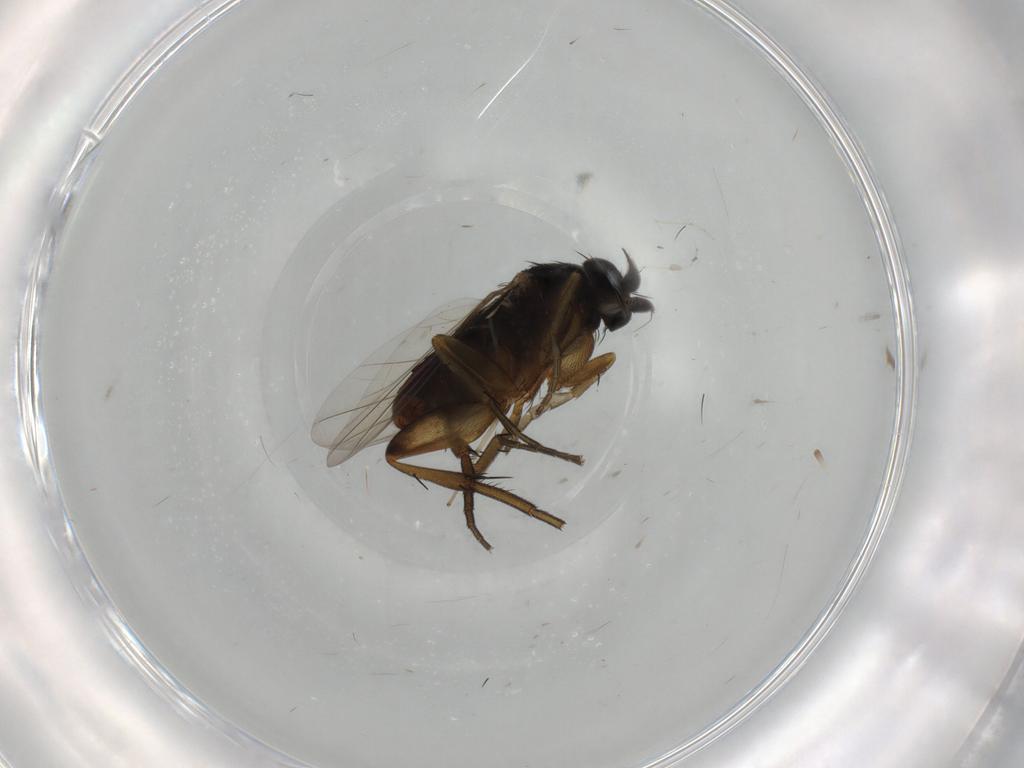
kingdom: Animalia
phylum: Arthropoda
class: Insecta
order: Diptera
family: Phoridae
